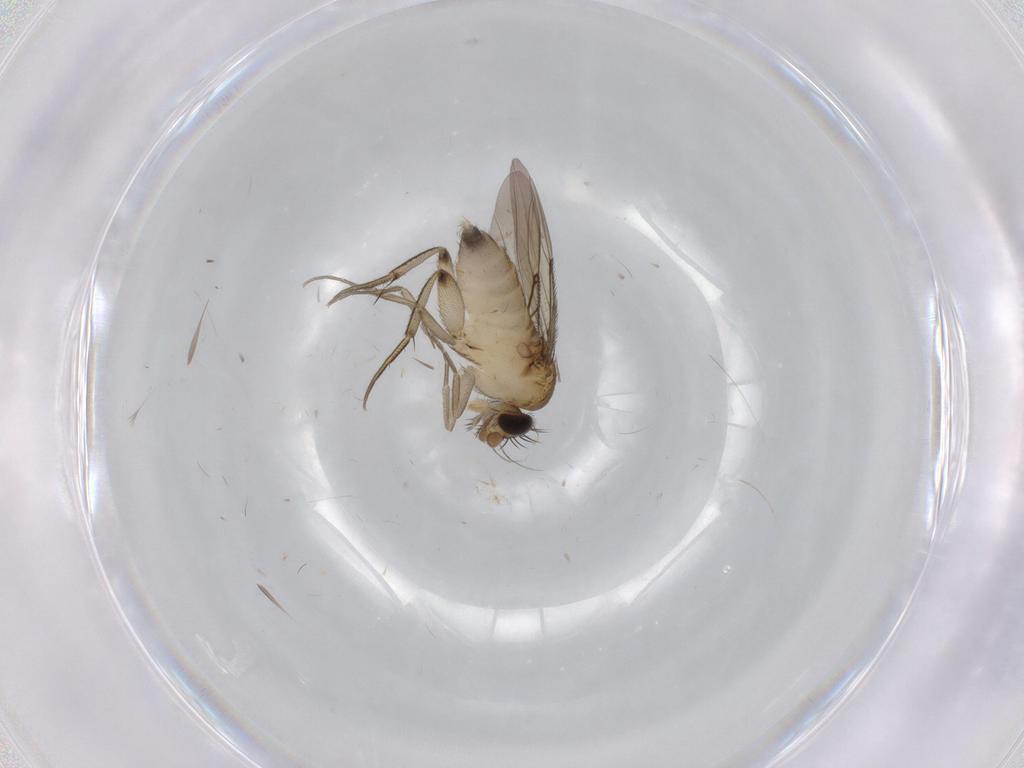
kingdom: Animalia
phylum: Arthropoda
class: Insecta
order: Diptera
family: Phoridae
